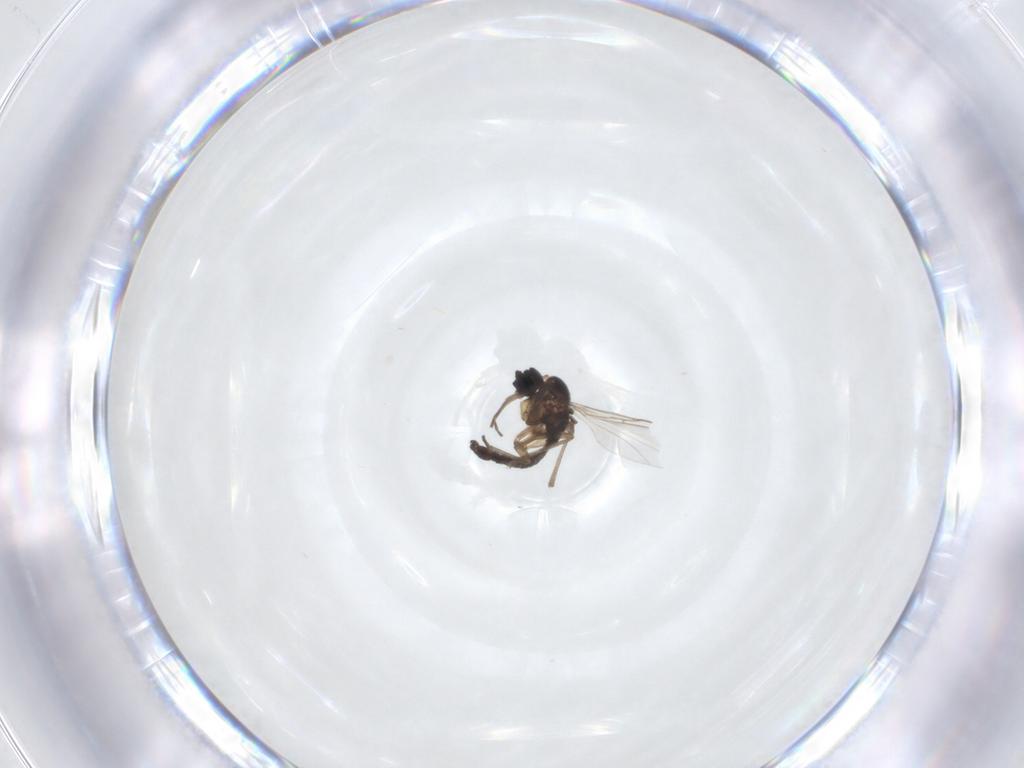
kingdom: Animalia
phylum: Arthropoda
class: Insecta
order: Diptera
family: Sciaridae
